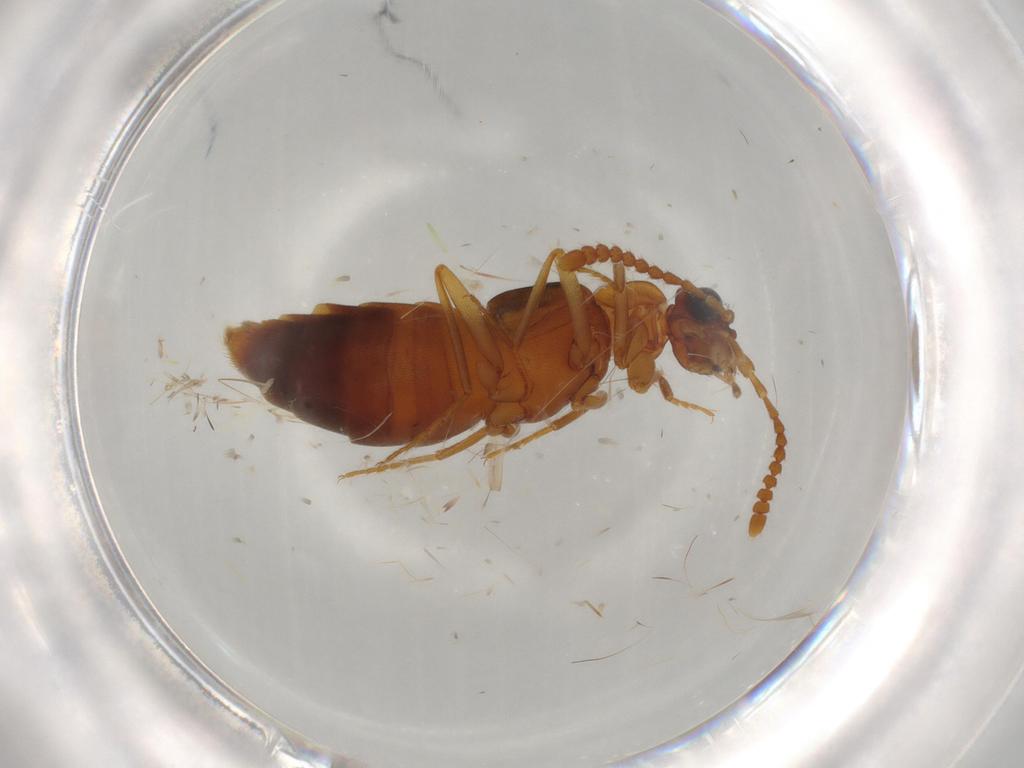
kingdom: Animalia
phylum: Arthropoda
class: Insecta
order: Coleoptera
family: Staphylinidae
